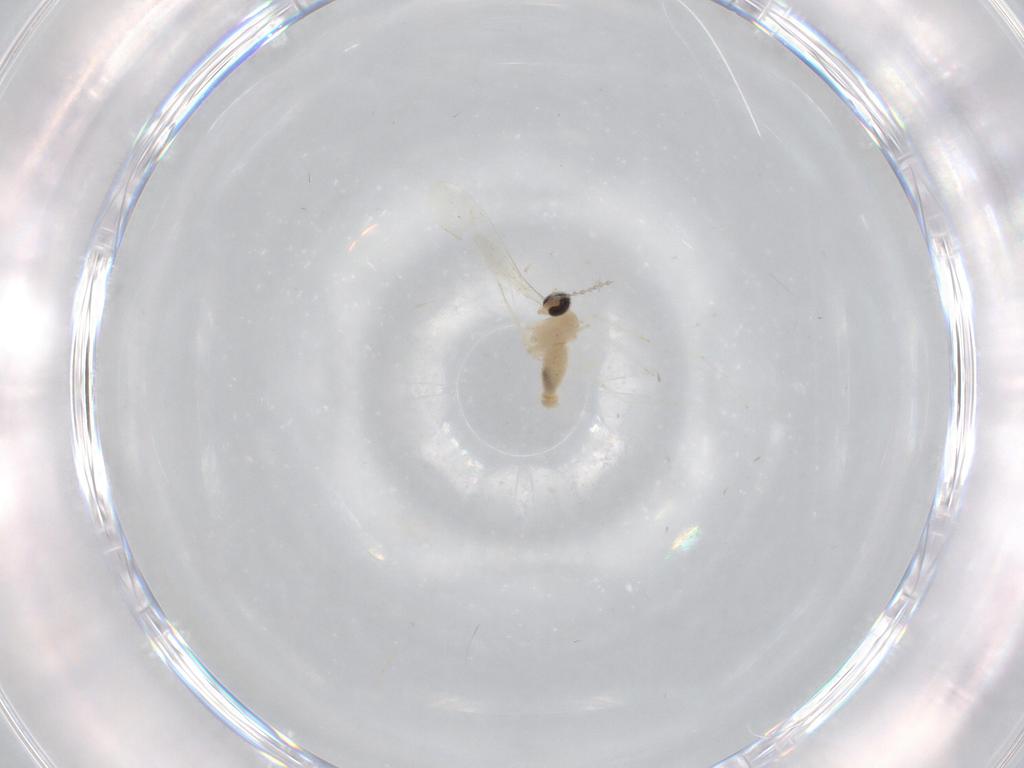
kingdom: Animalia
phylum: Arthropoda
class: Insecta
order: Diptera
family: Cecidomyiidae
